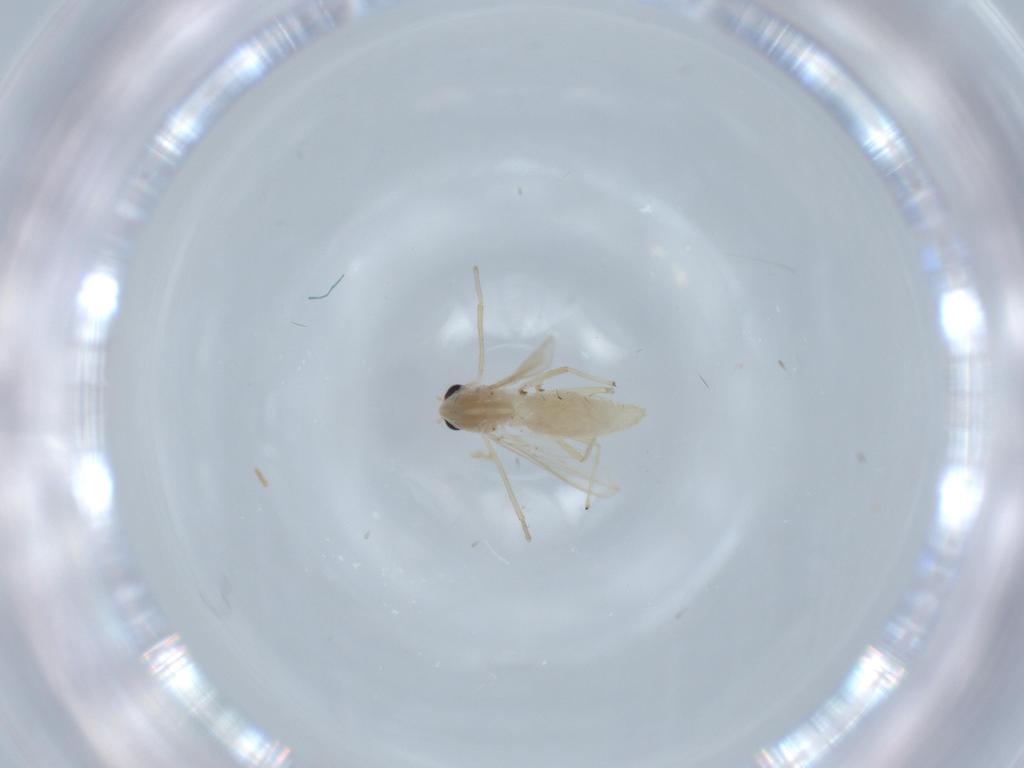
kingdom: Animalia
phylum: Arthropoda
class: Insecta
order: Diptera
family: Chironomidae
